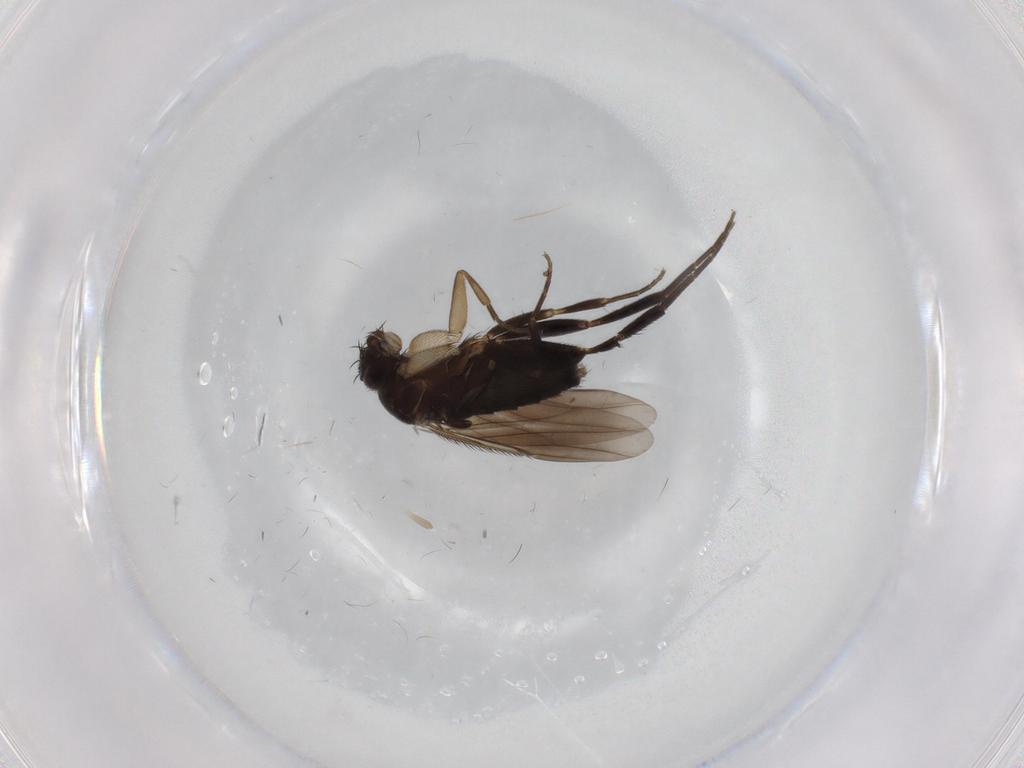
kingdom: Animalia
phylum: Arthropoda
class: Insecta
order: Diptera
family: Phoridae
